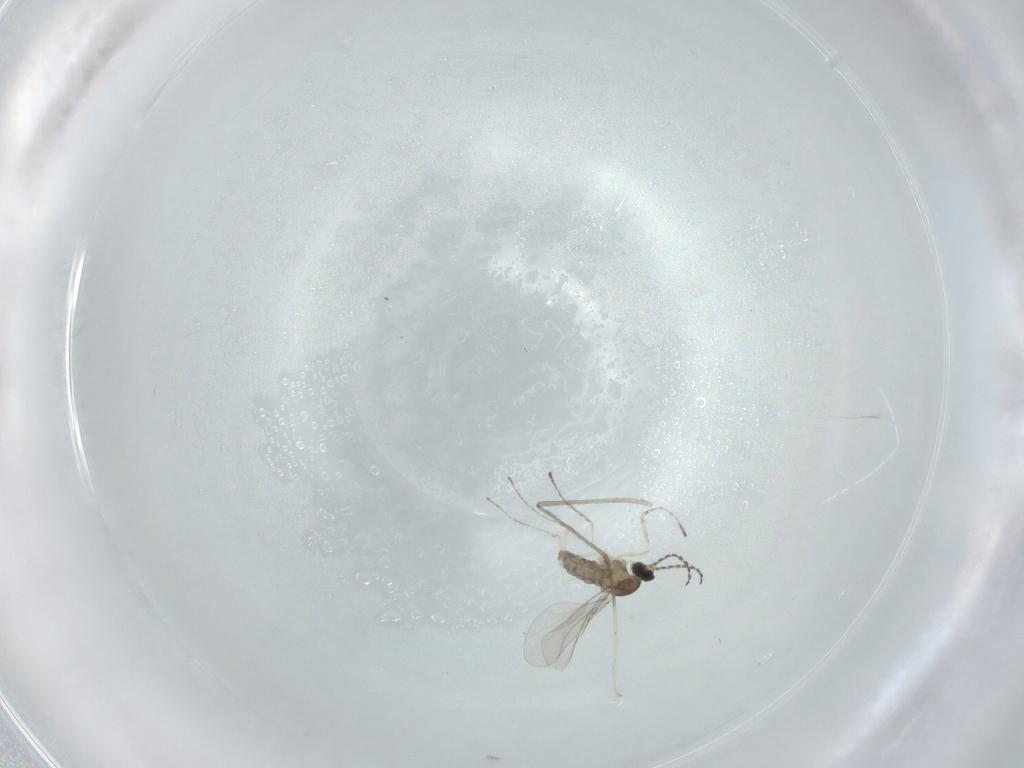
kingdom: Animalia
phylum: Arthropoda
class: Insecta
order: Diptera
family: Cecidomyiidae
